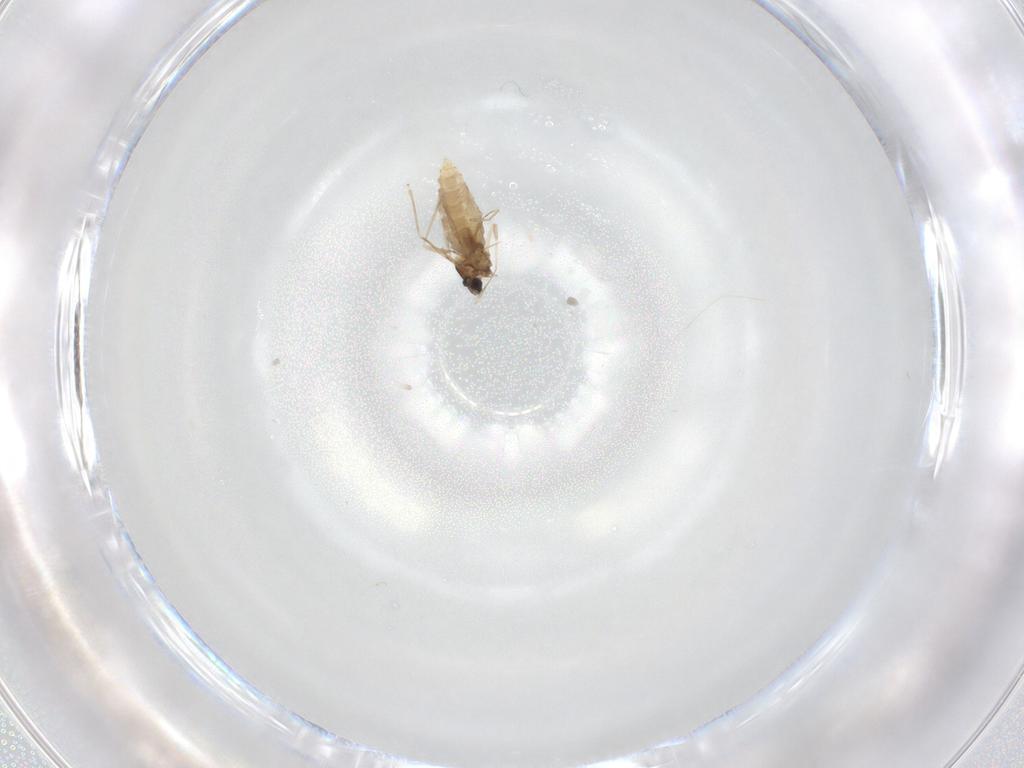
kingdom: Animalia
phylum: Arthropoda
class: Insecta
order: Diptera
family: Cecidomyiidae
